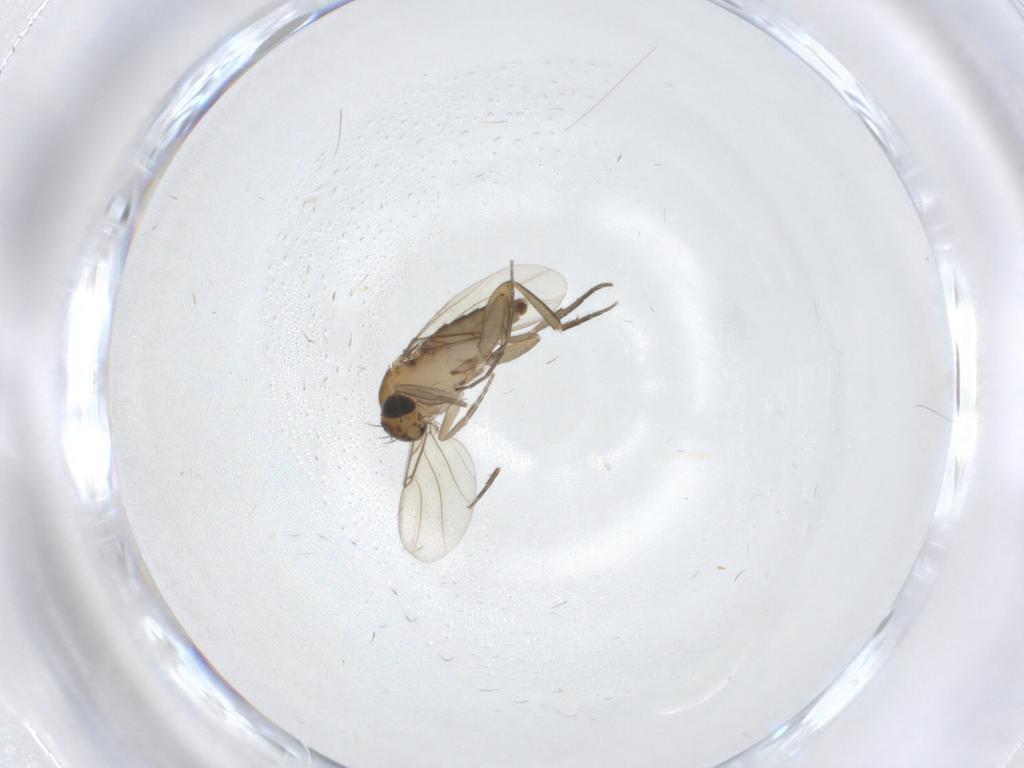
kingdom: Animalia
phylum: Arthropoda
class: Insecta
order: Diptera
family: Phoridae
